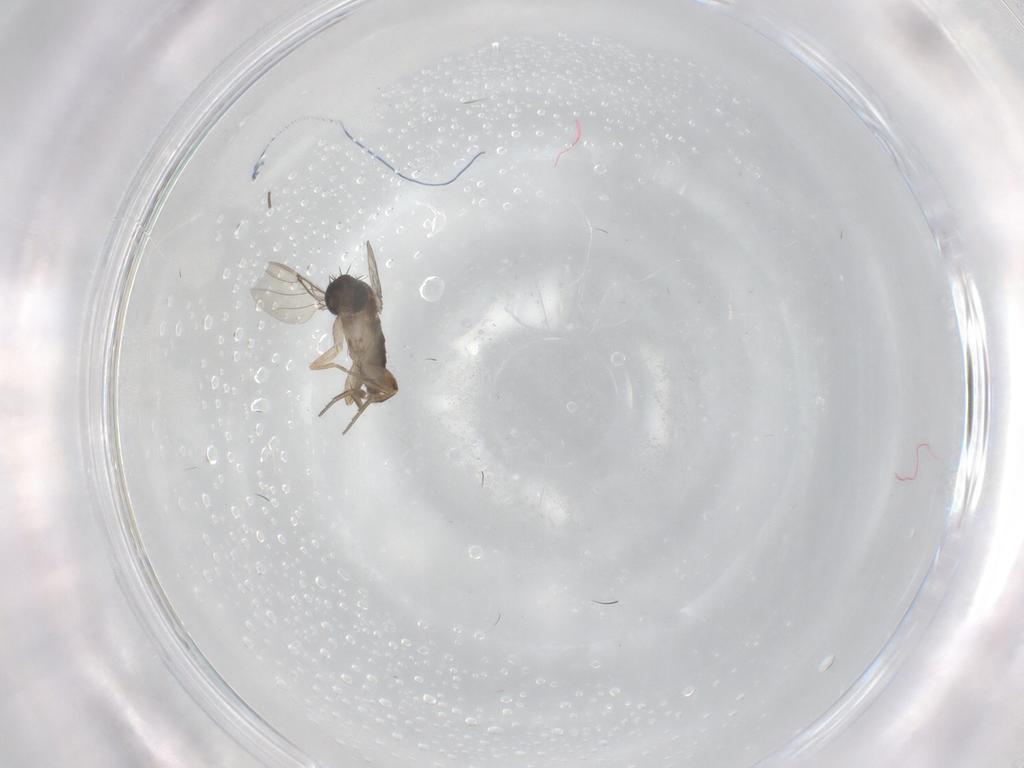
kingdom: Animalia
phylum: Arthropoda
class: Insecta
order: Diptera
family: Phoridae
